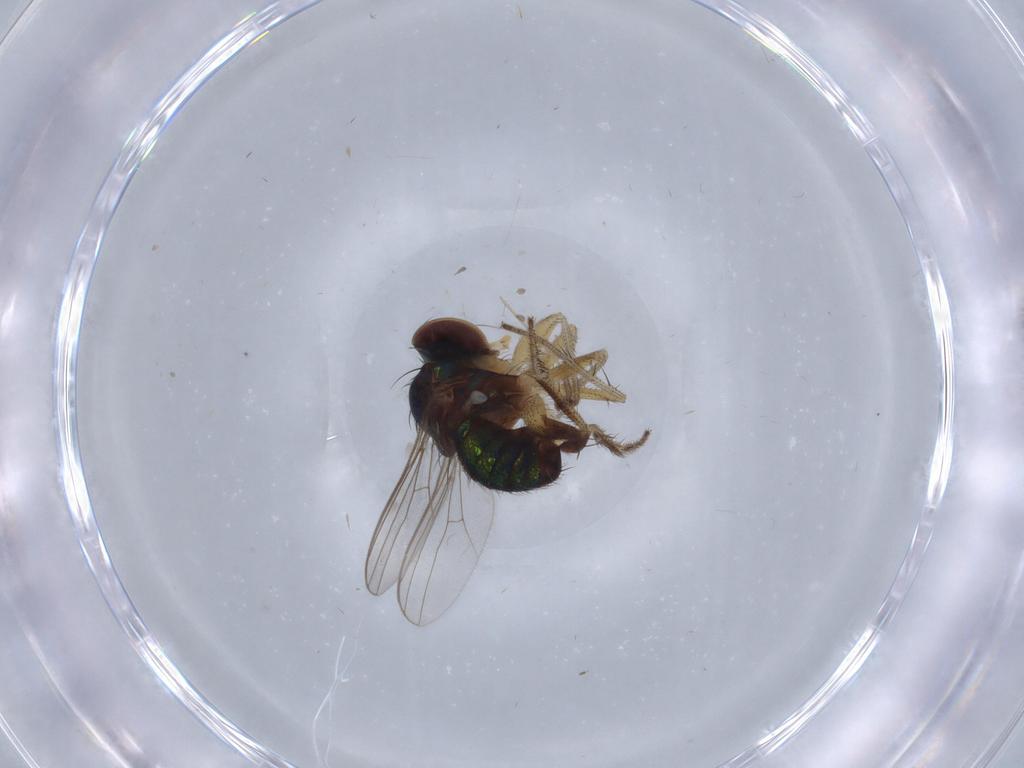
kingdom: Animalia
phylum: Arthropoda
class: Insecta
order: Diptera
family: Dolichopodidae
